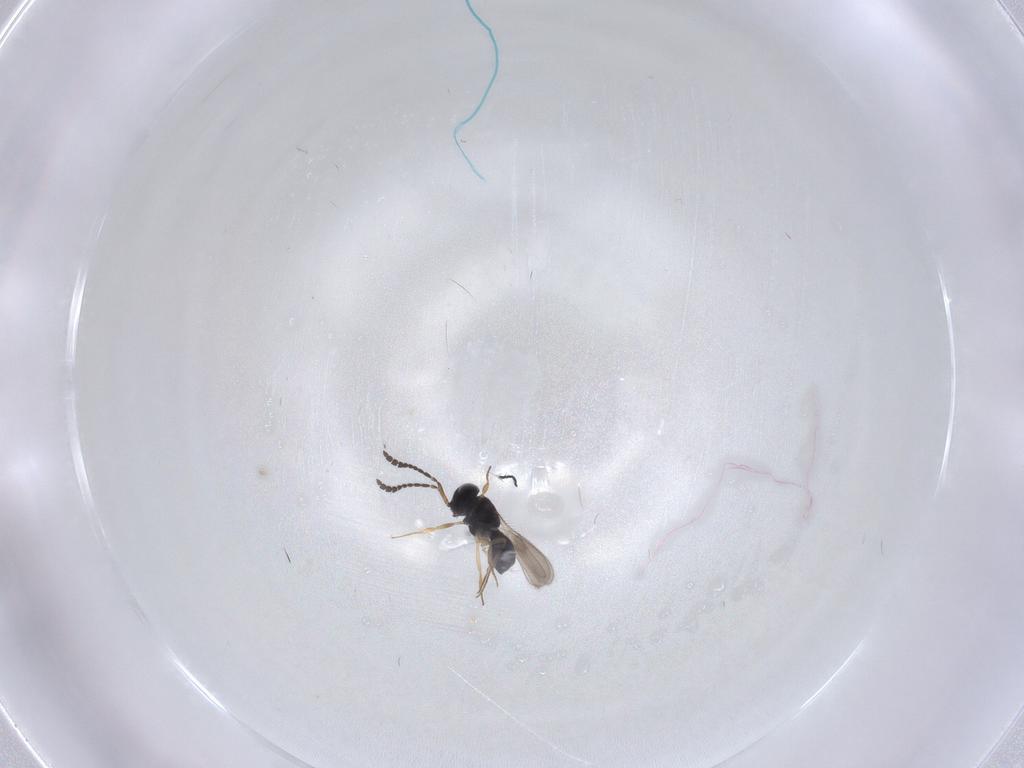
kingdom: Animalia
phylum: Arthropoda
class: Insecta
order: Hymenoptera
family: Scelionidae
